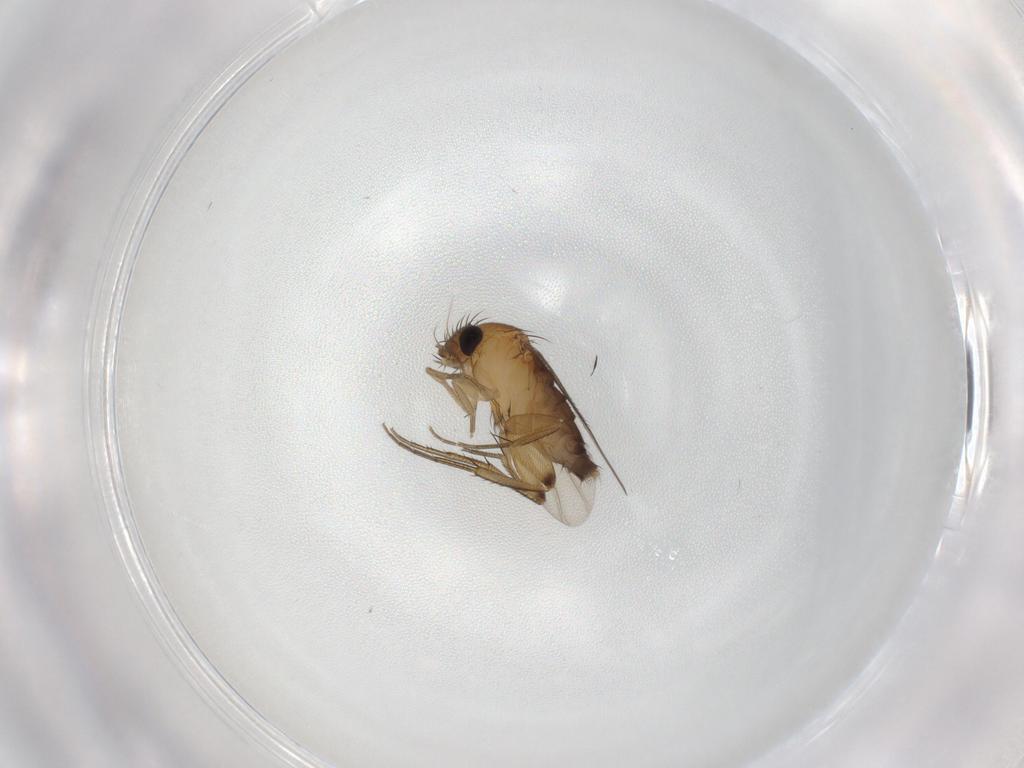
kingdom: Animalia
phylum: Arthropoda
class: Insecta
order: Diptera
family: Phoridae
